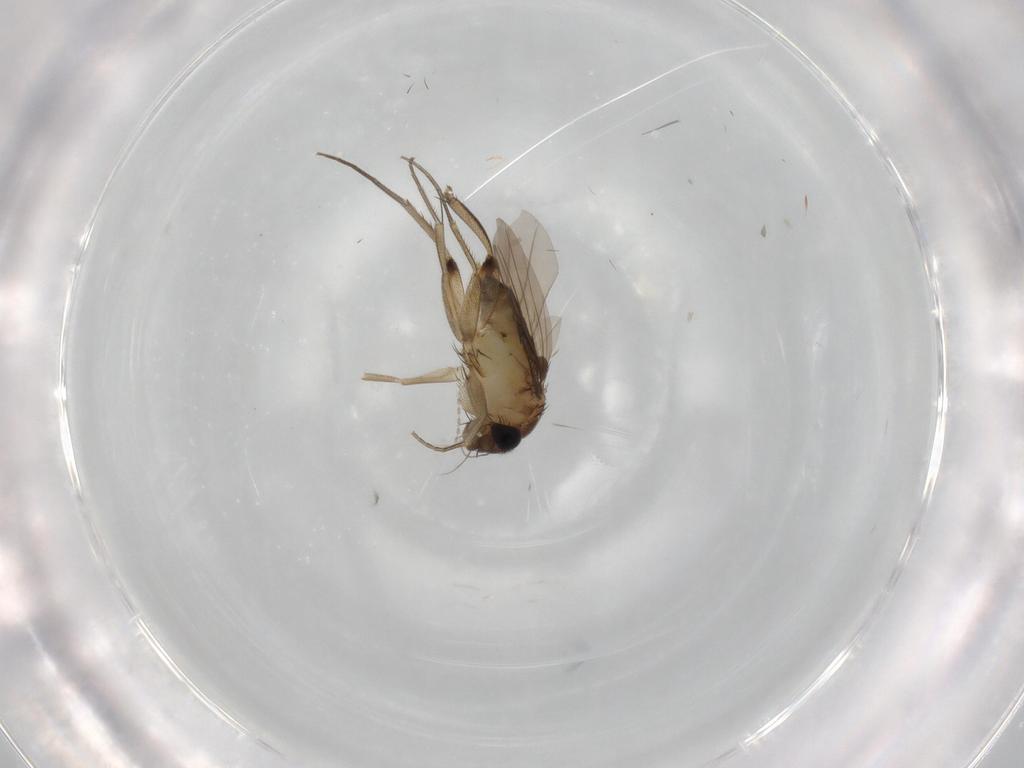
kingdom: Animalia
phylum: Arthropoda
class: Insecta
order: Diptera
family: Phoridae
